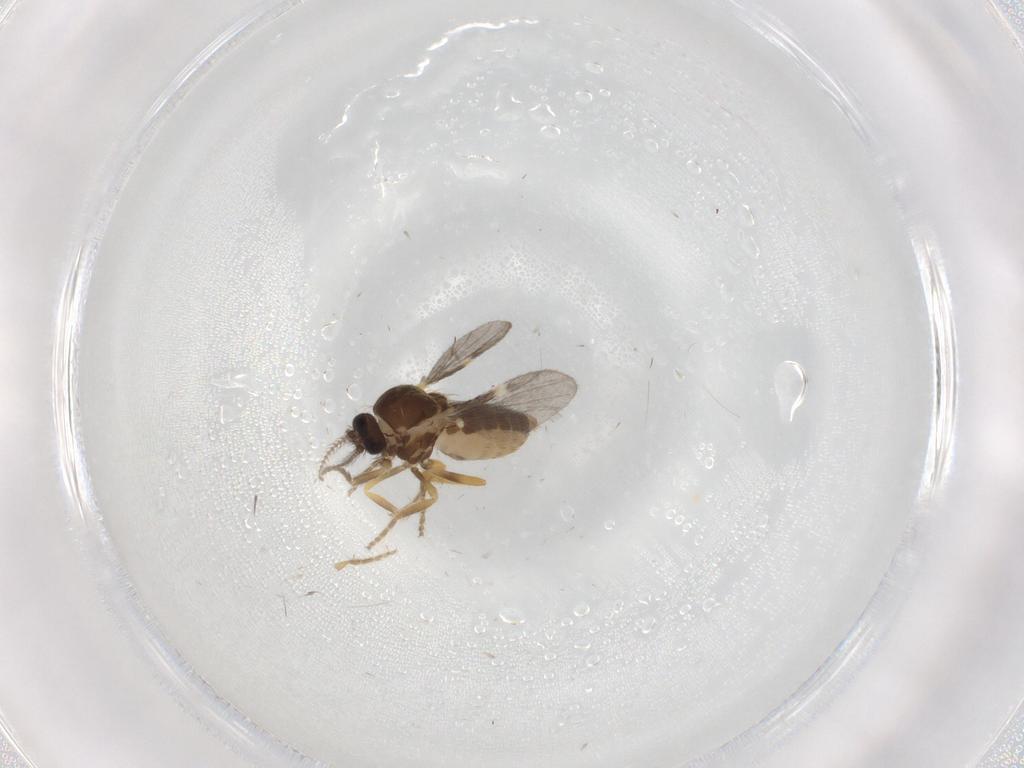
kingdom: Animalia
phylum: Arthropoda
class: Insecta
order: Diptera
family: Ceratopogonidae
